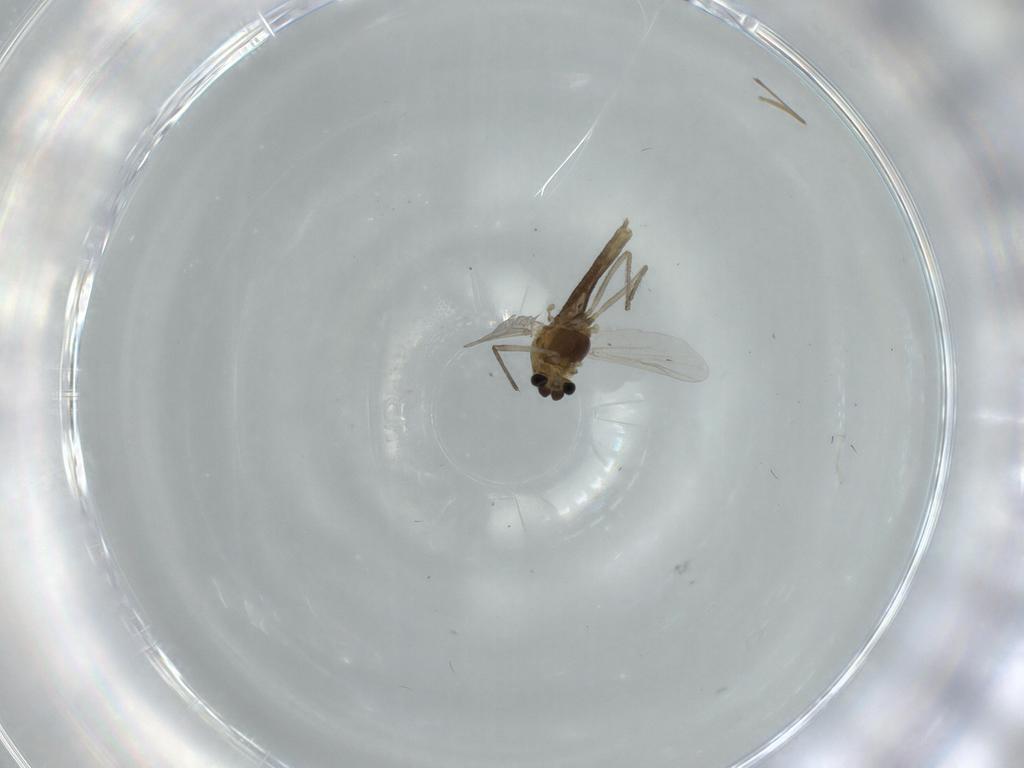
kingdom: Animalia
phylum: Arthropoda
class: Insecta
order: Diptera
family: Chironomidae
